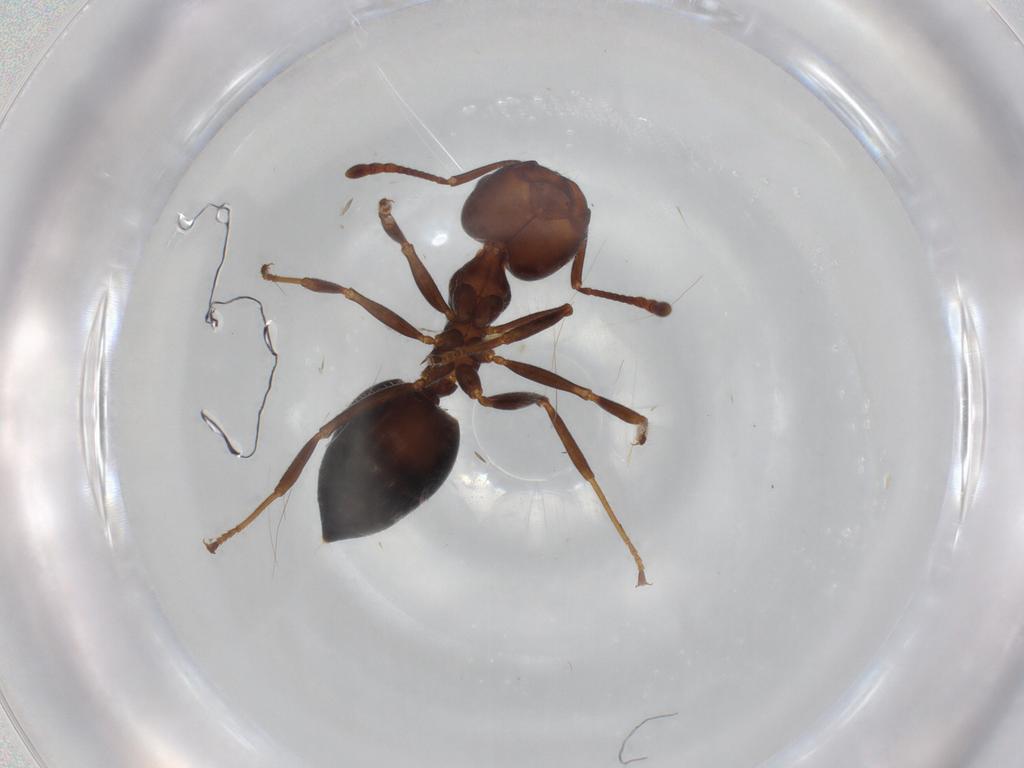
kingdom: Animalia
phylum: Arthropoda
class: Insecta
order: Hymenoptera
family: Formicidae
